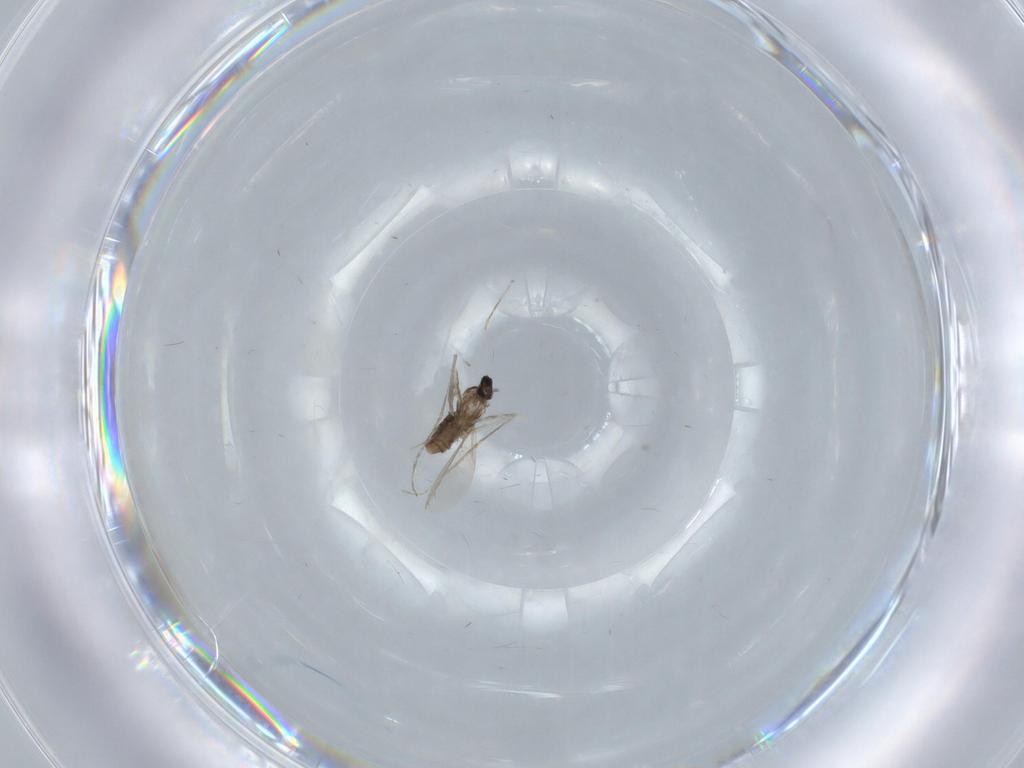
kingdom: Animalia
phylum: Arthropoda
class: Insecta
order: Diptera
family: Cecidomyiidae
